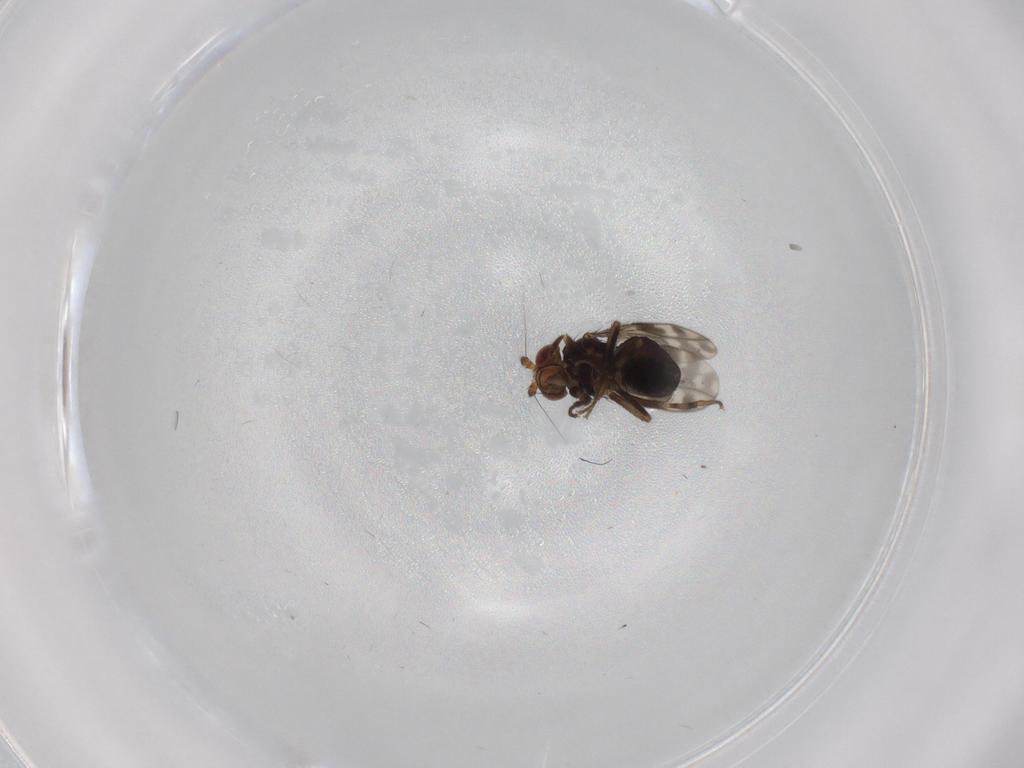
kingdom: Animalia
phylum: Arthropoda
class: Insecta
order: Diptera
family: Sphaeroceridae
